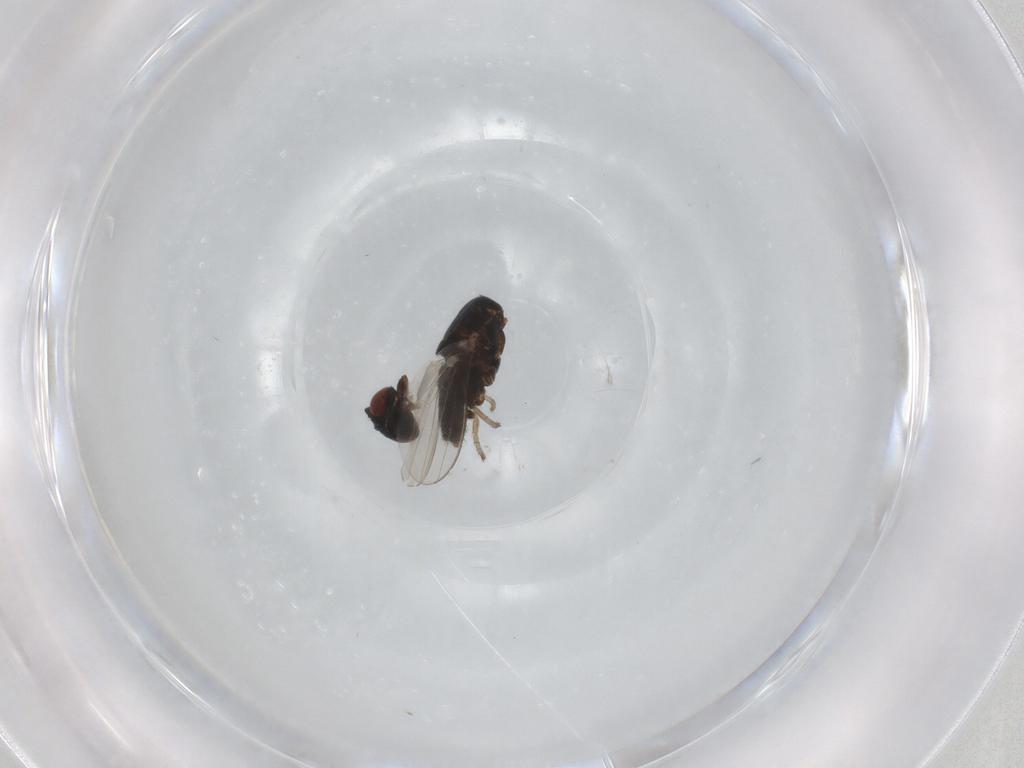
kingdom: Animalia
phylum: Arthropoda
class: Insecta
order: Diptera
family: Milichiidae
